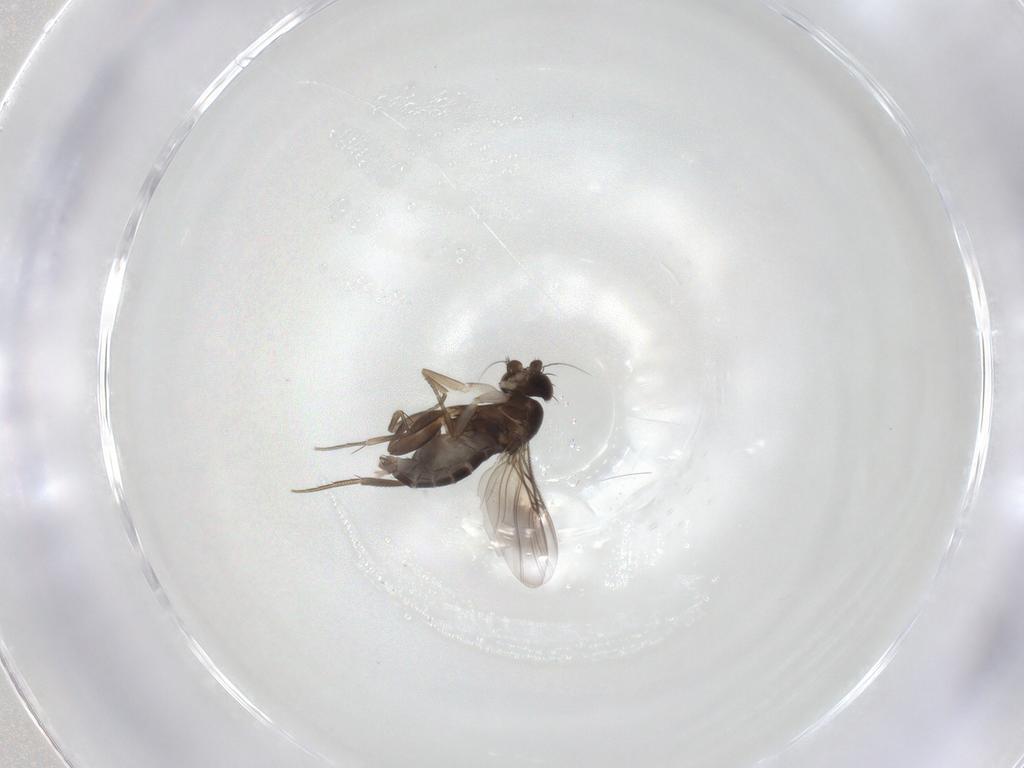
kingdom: Animalia
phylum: Arthropoda
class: Insecta
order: Diptera
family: Phoridae
